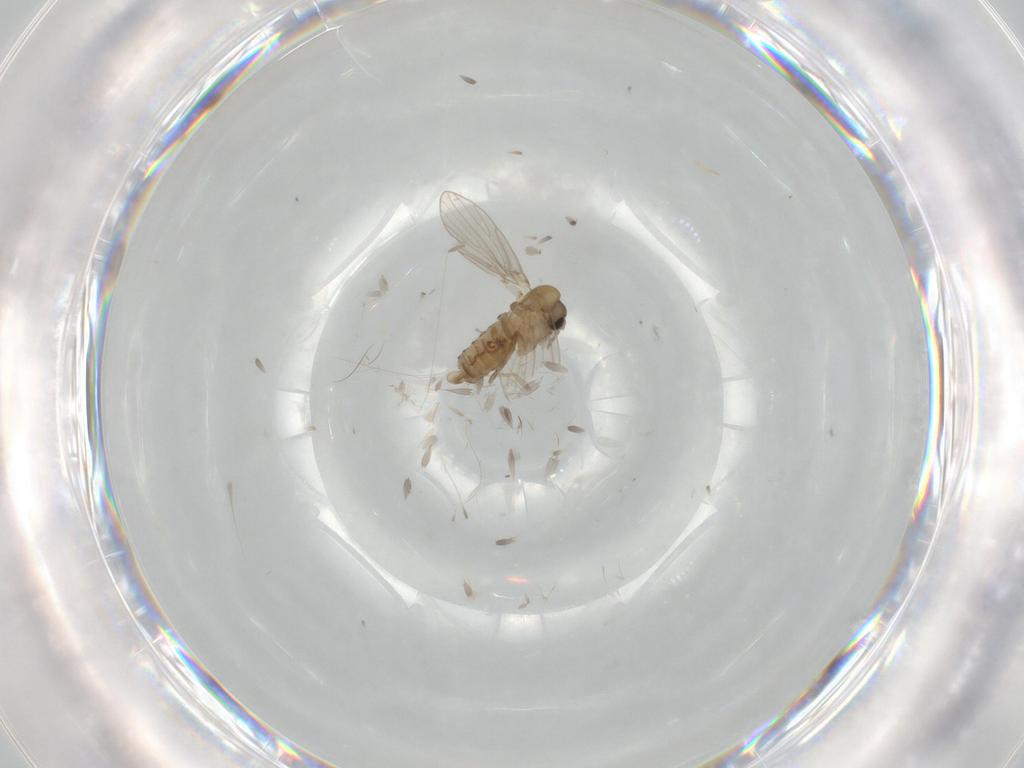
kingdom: Animalia
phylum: Arthropoda
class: Insecta
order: Diptera
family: Psychodidae
